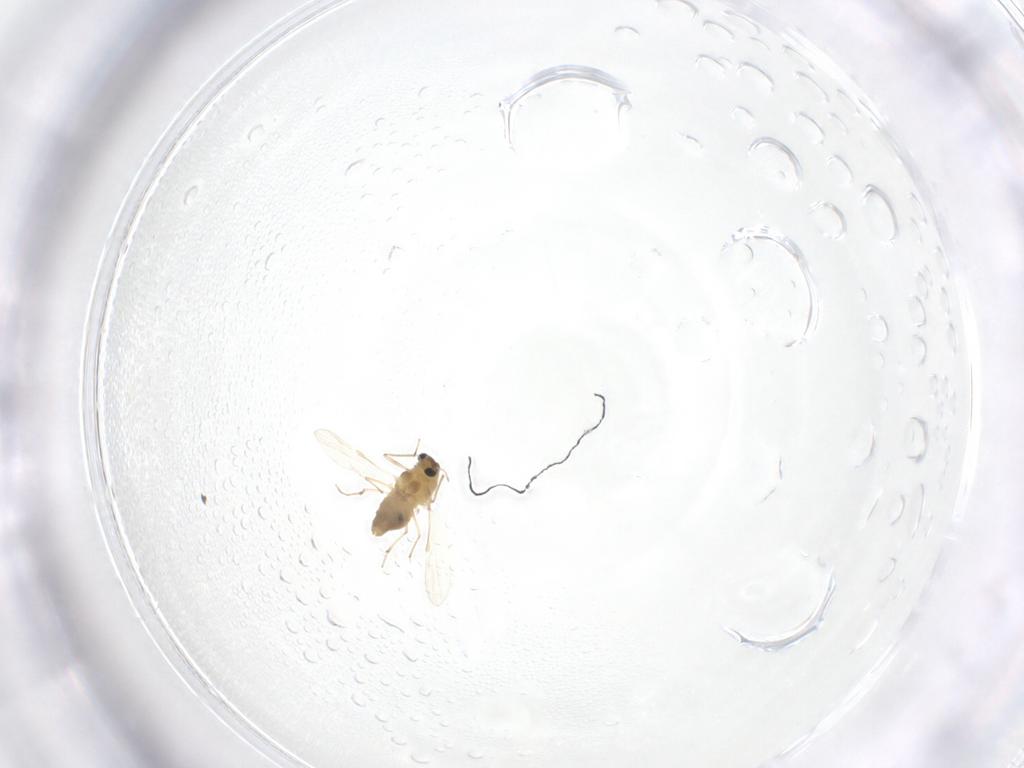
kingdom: Animalia
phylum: Arthropoda
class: Insecta
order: Diptera
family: Chironomidae
